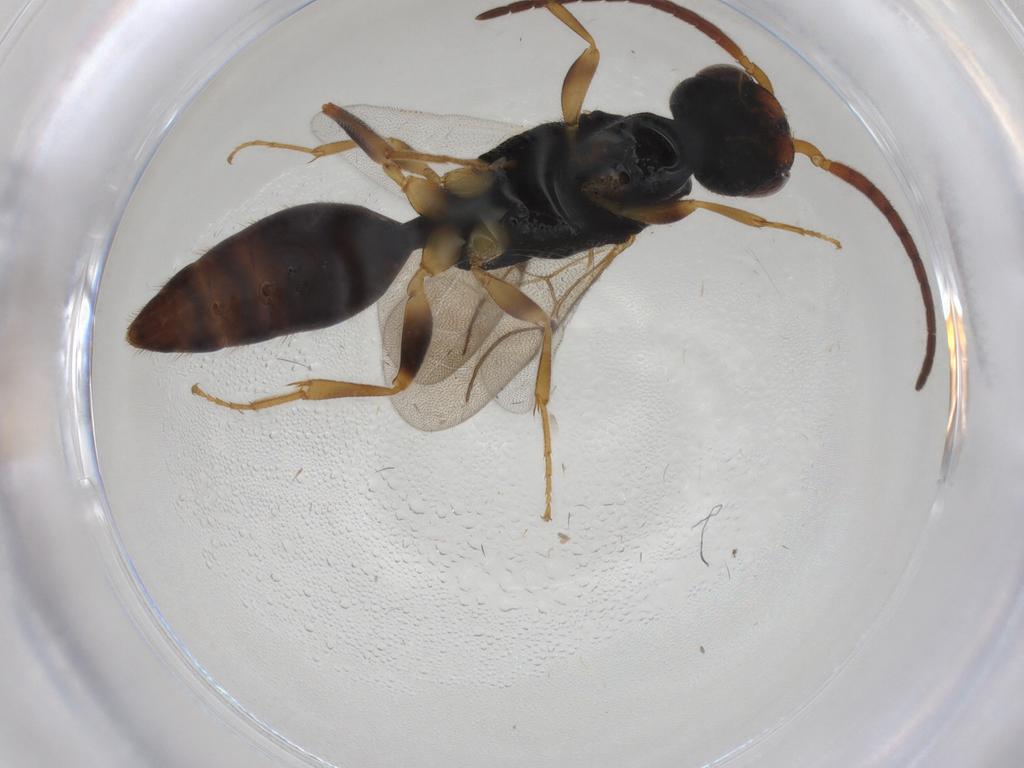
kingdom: Animalia
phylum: Arthropoda
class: Insecta
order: Hymenoptera
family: Bethylidae
